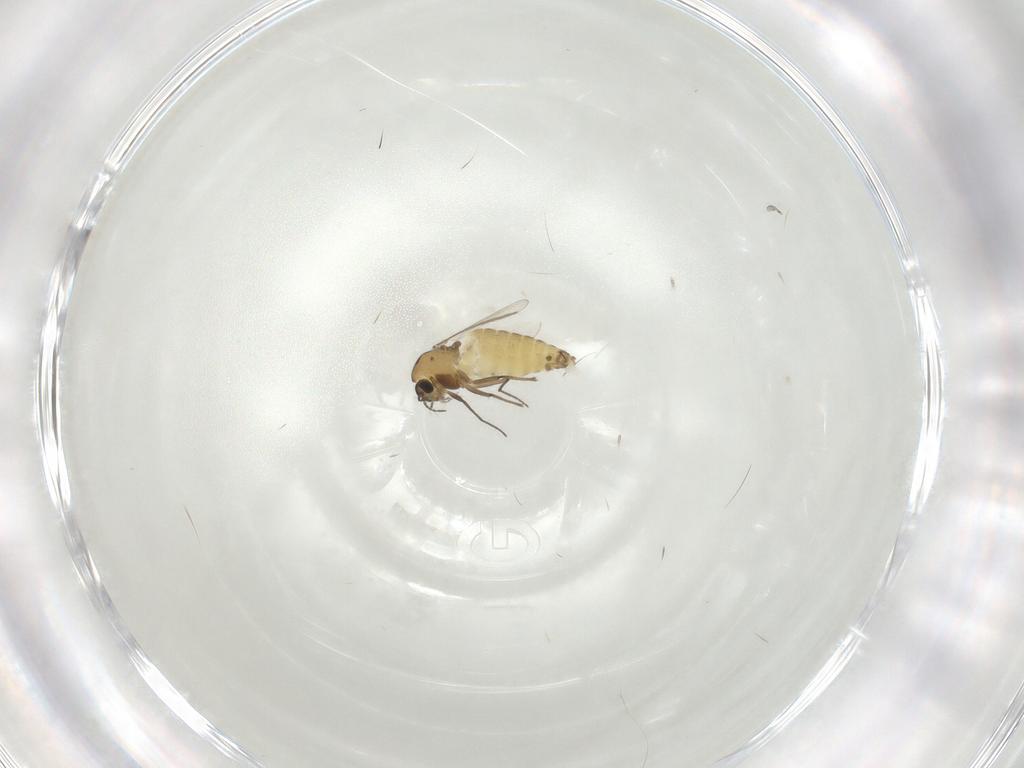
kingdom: Animalia
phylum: Arthropoda
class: Insecta
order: Diptera
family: Chironomidae
